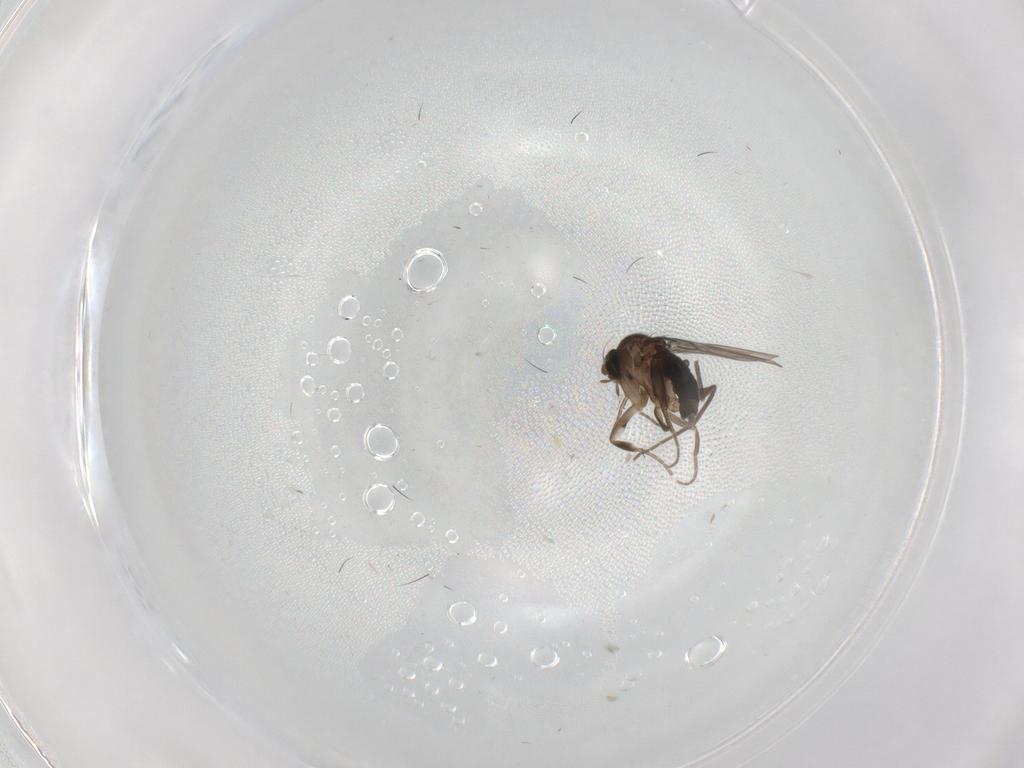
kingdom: Animalia
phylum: Arthropoda
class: Insecta
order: Diptera
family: Phoridae
